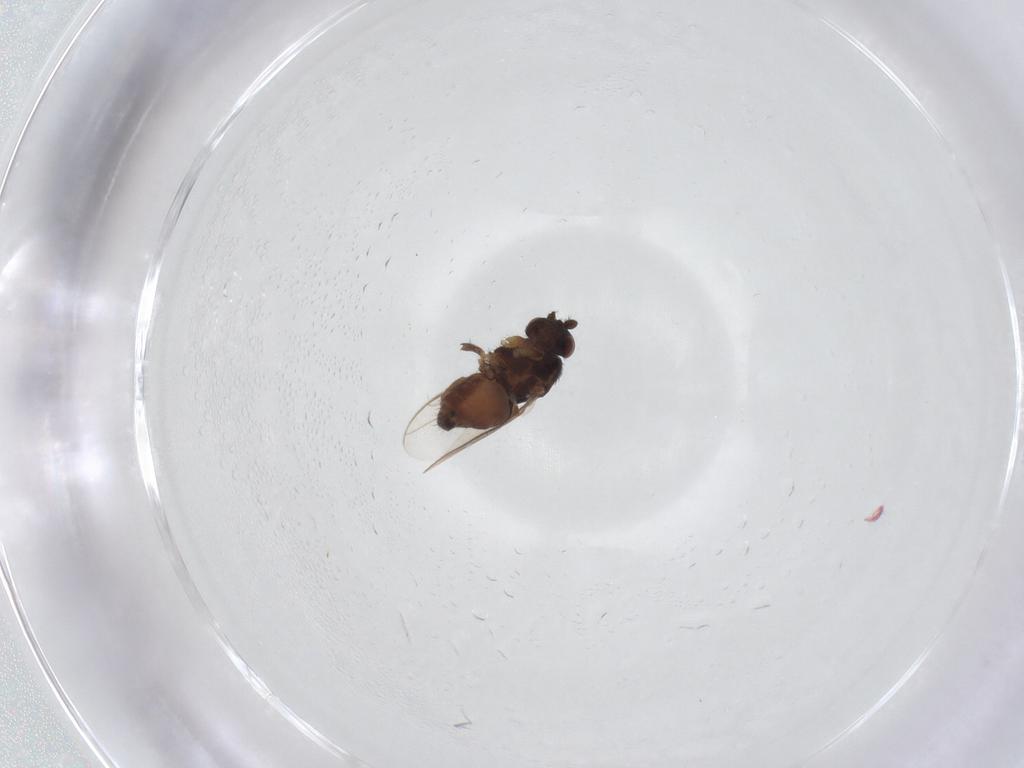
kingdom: Animalia
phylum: Arthropoda
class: Insecta
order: Diptera
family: Sphaeroceridae
